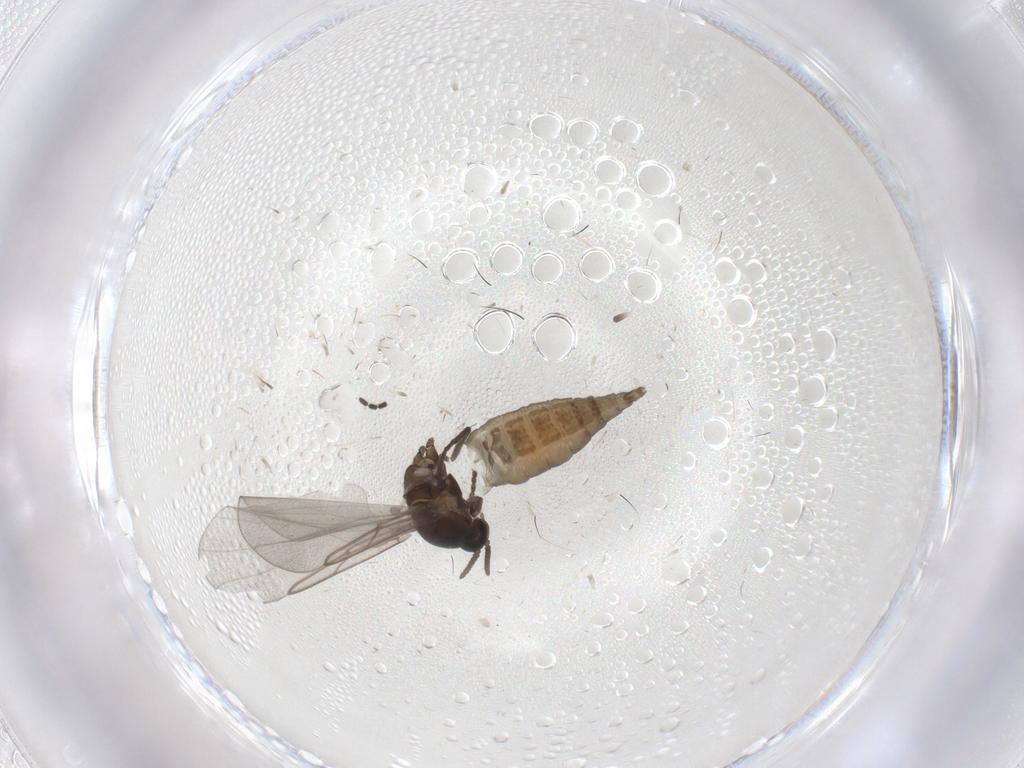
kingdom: Animalia
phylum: Arthropoda
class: Insecta
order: Diptera
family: Cecidomyiidae
